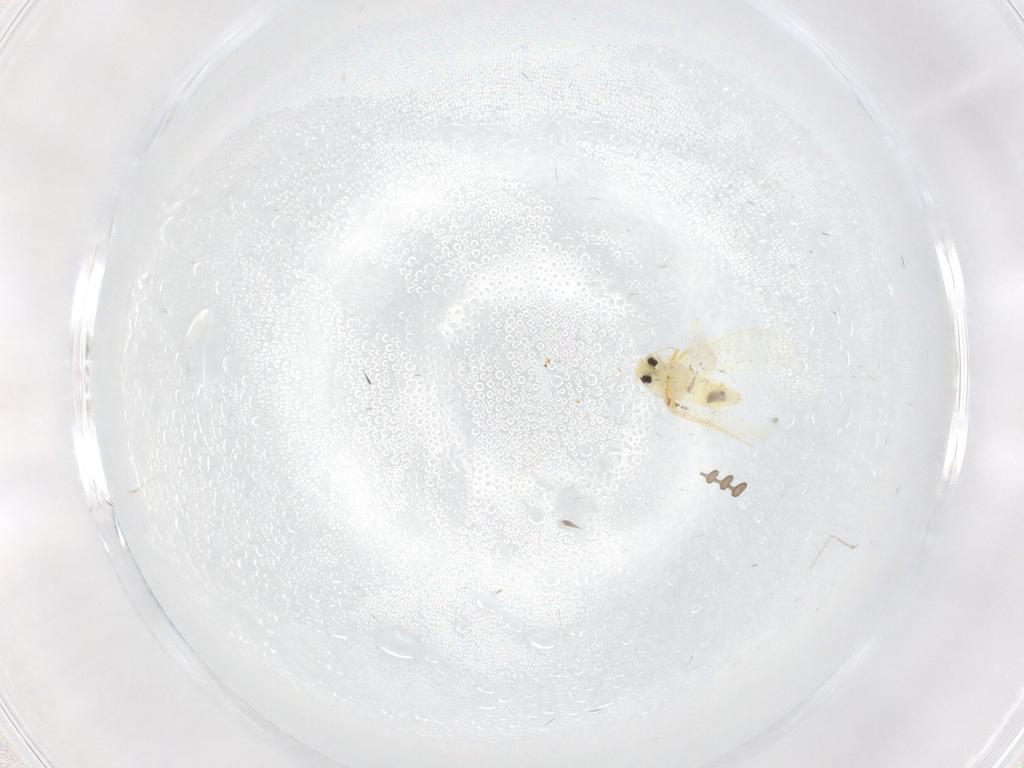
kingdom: Animalia
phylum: Arthropoda
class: Insecta
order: Hemiptera
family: Aleyrodidae
